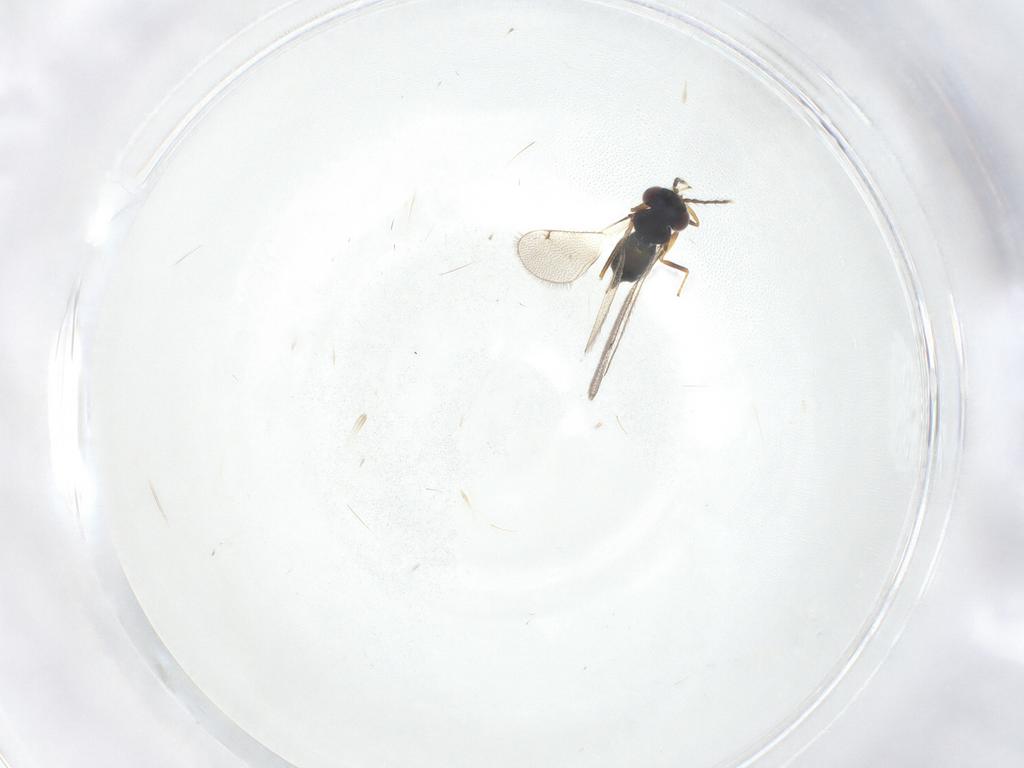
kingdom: Animalia
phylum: Arthropoda
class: Insecta
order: Hymenoptera
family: Eulophidae
